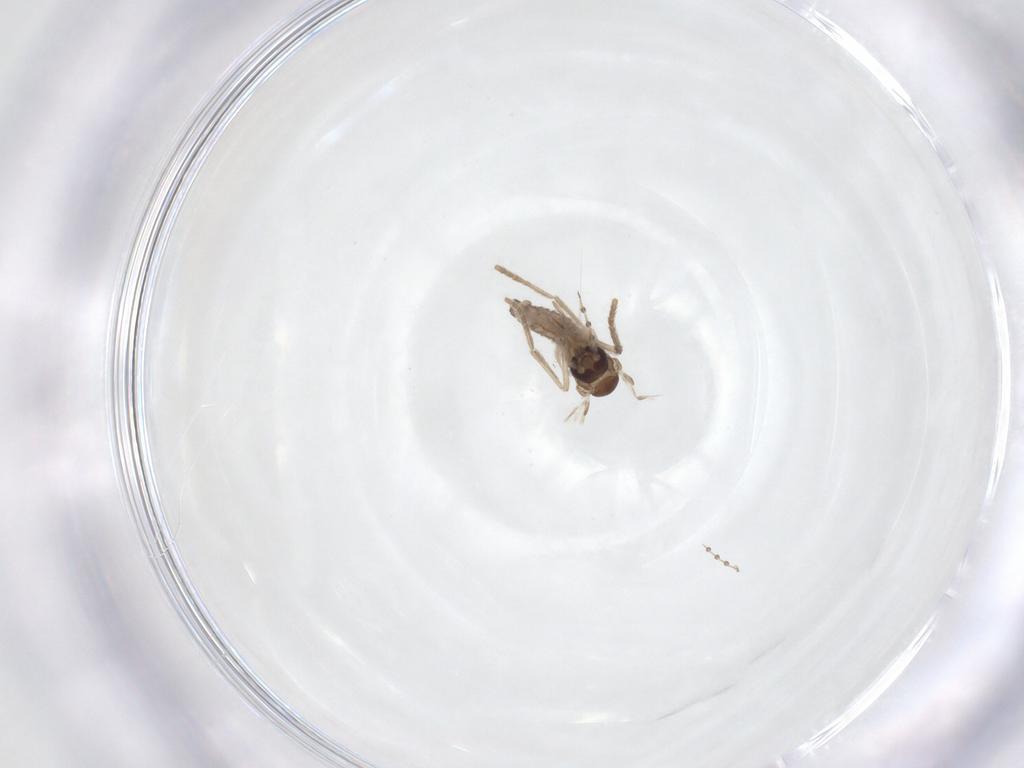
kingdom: Animalia
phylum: Arthropoda
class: Insecta
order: Diptera
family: Psychodidae
